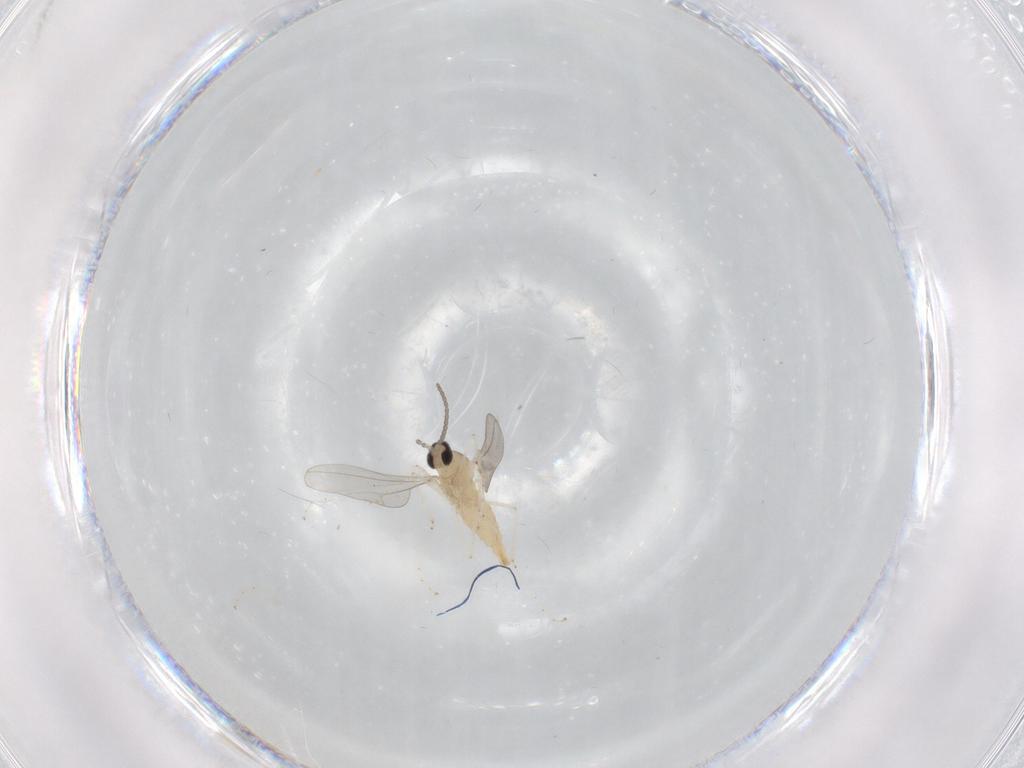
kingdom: Animalia
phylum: Arthropoda
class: Insecta
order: Diptera
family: Cecidomyiidae
